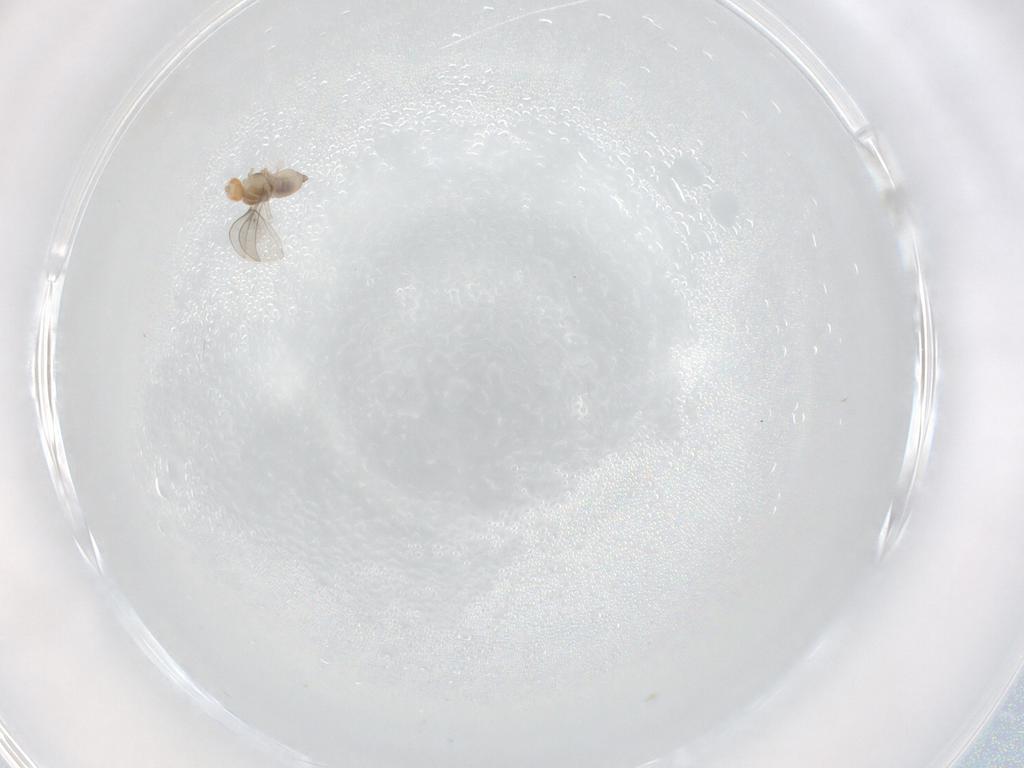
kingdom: Animalia
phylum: Arthropoda
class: Insecta
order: Diptera
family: Cecidomyiidae
